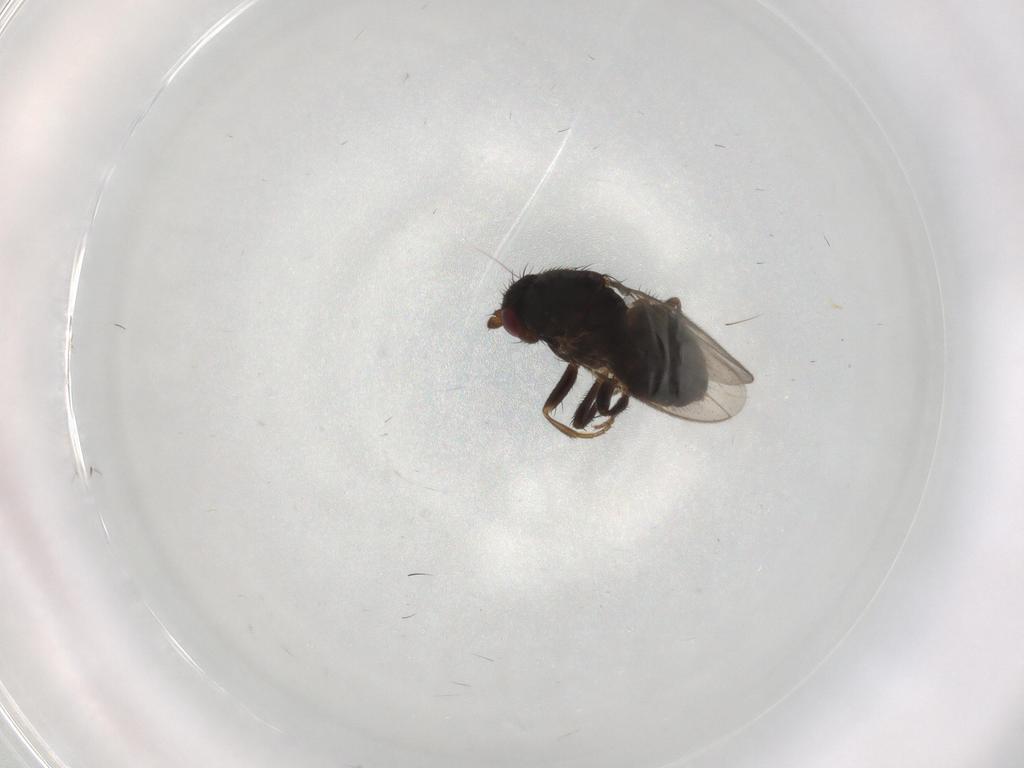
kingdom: Animalia
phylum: Arthropoda
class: Insecta
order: Diptera
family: Sphaeroceridae
